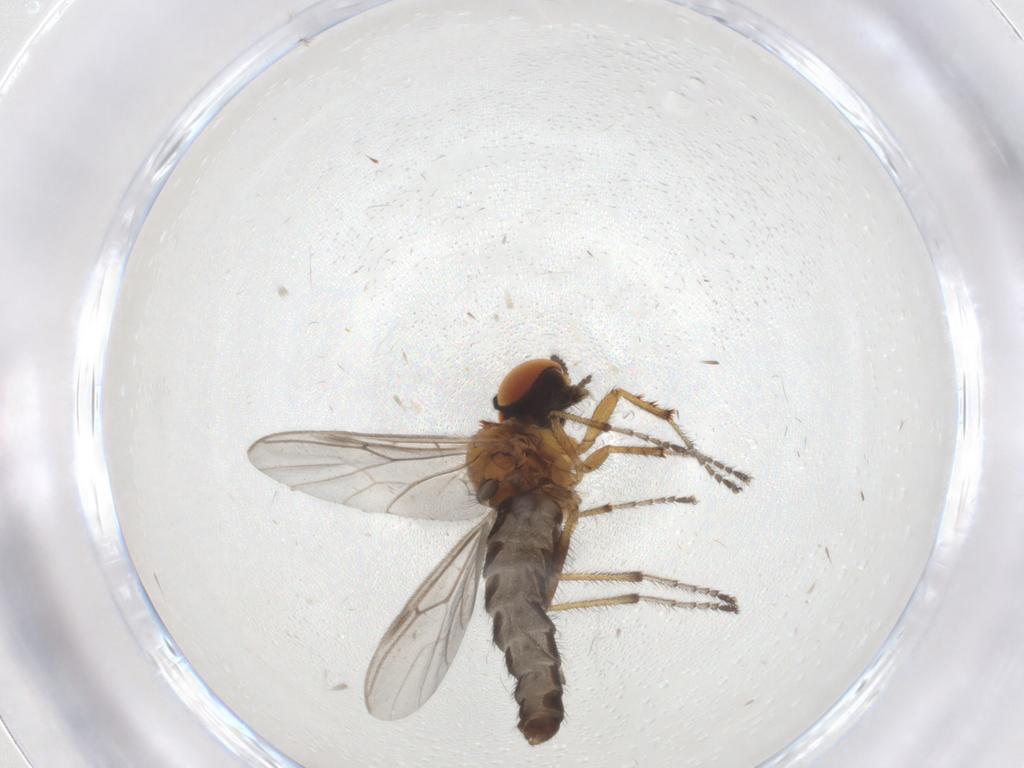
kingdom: Animalia
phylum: Arthropoda
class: Insecta
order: Diptera
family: Bibionidae
